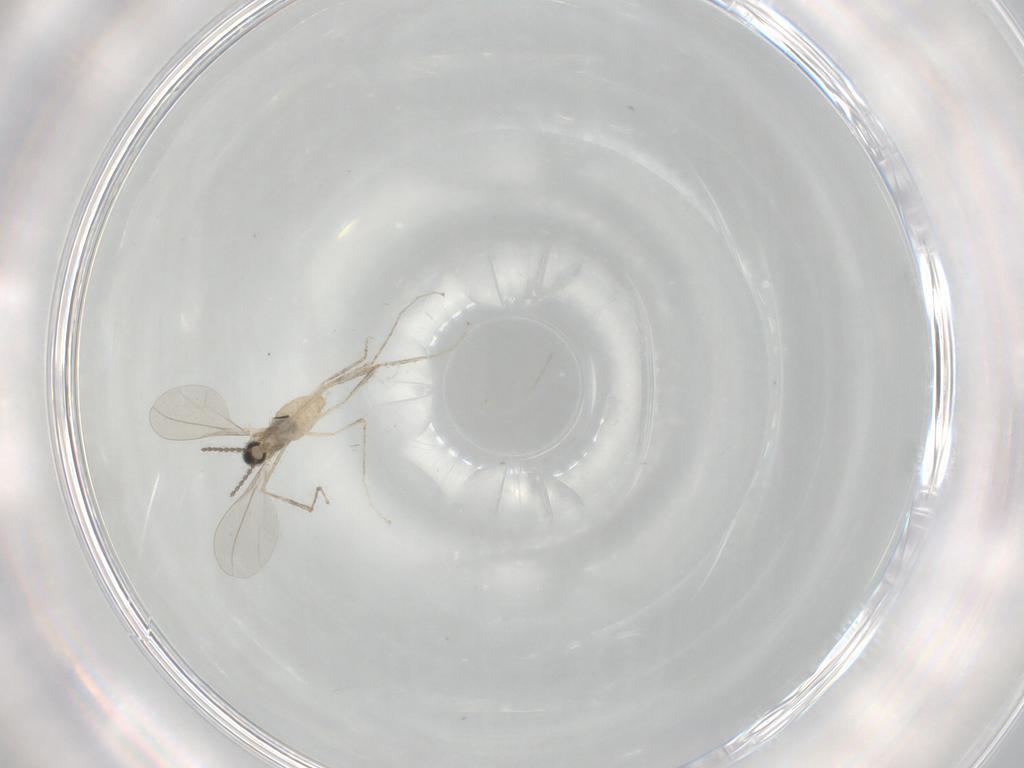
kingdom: Animalia
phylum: Arthropoda
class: Insecta
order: Diptera
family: Cecidomyiidae
